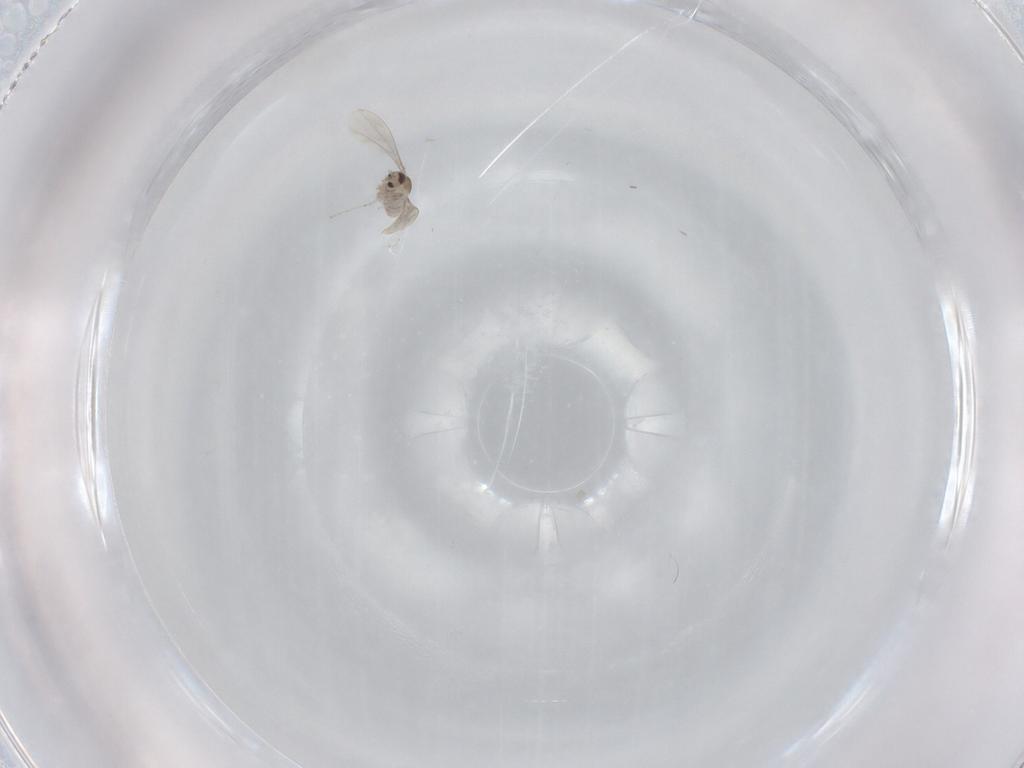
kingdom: Animalia
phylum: Arthropoda
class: Insecta
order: Diptera
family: Cecidomyiidae
